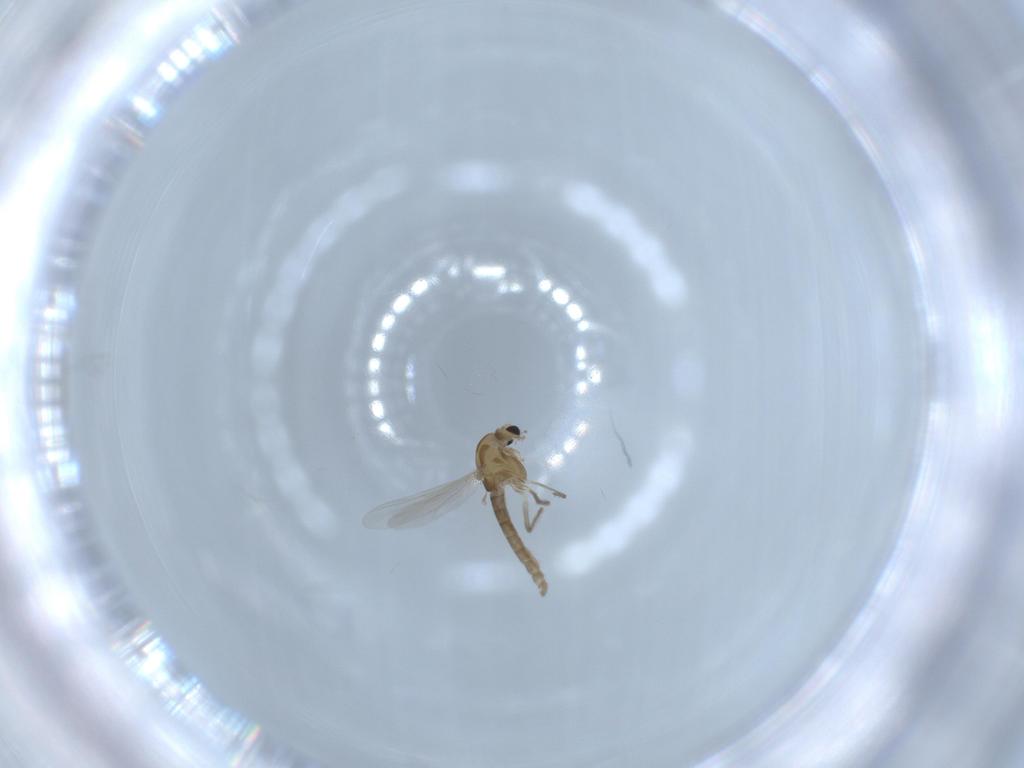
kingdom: Animalia
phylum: Arthropoda
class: Insecta
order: Diptera
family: Chironomidae
